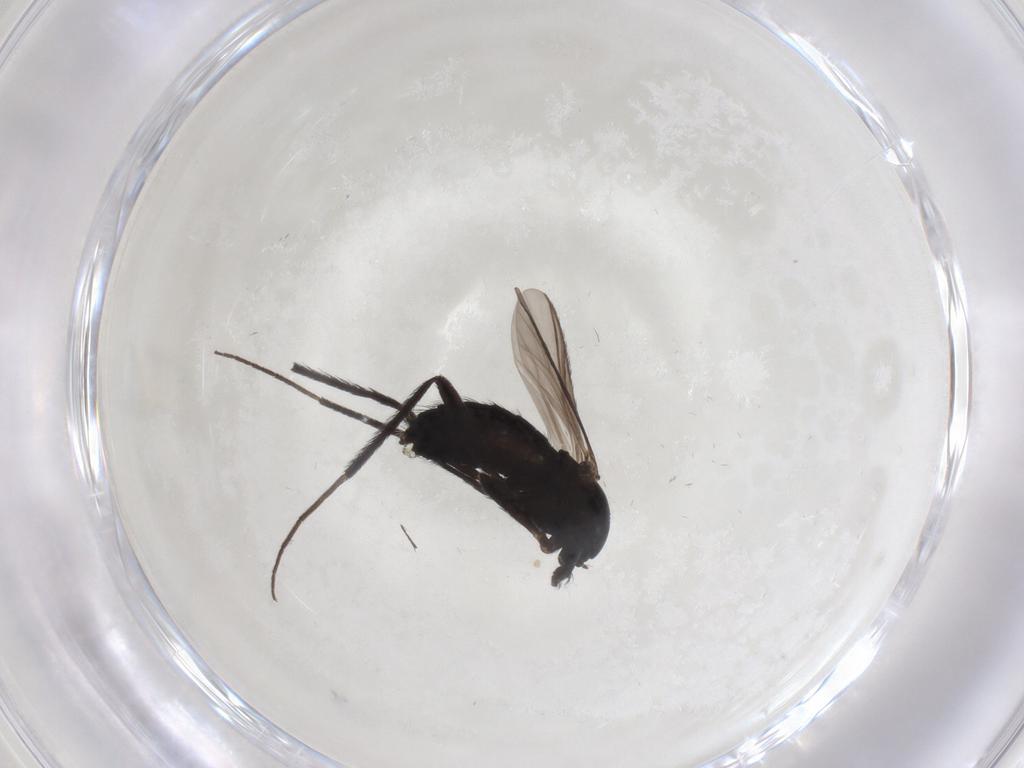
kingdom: Animalia
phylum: Arthropoda
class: Insecta
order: Diptera
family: Chironomidae
